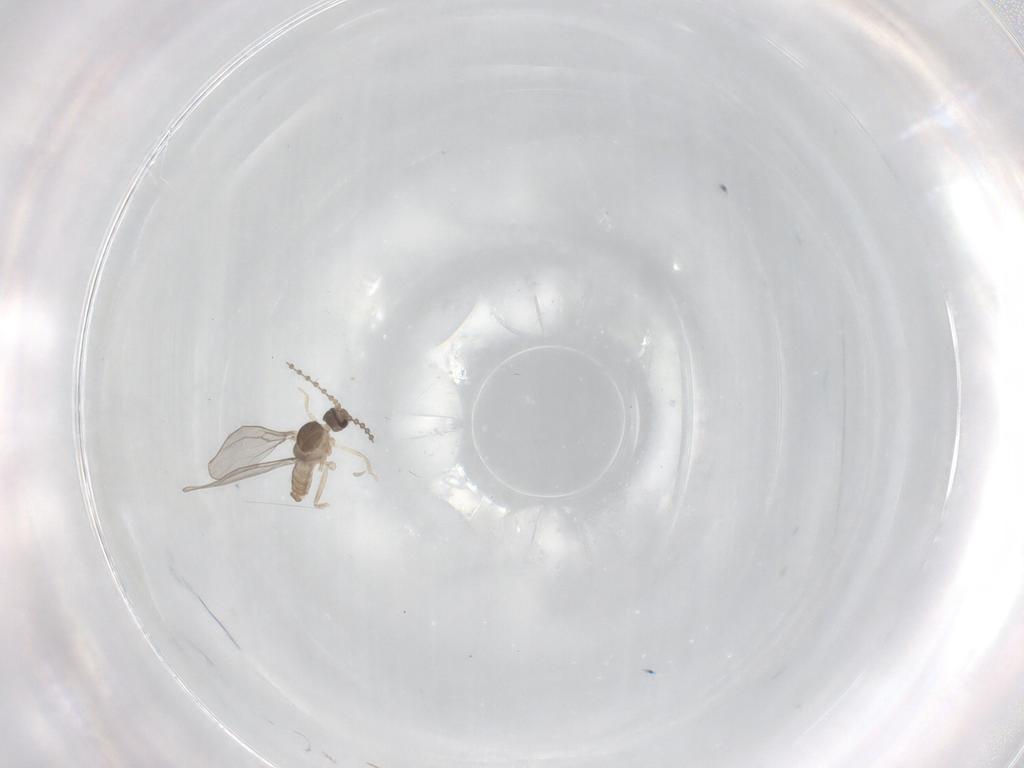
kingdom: Animalia
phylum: Arthropoda
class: Insecta
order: Diptera
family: Cecidomyiidae
